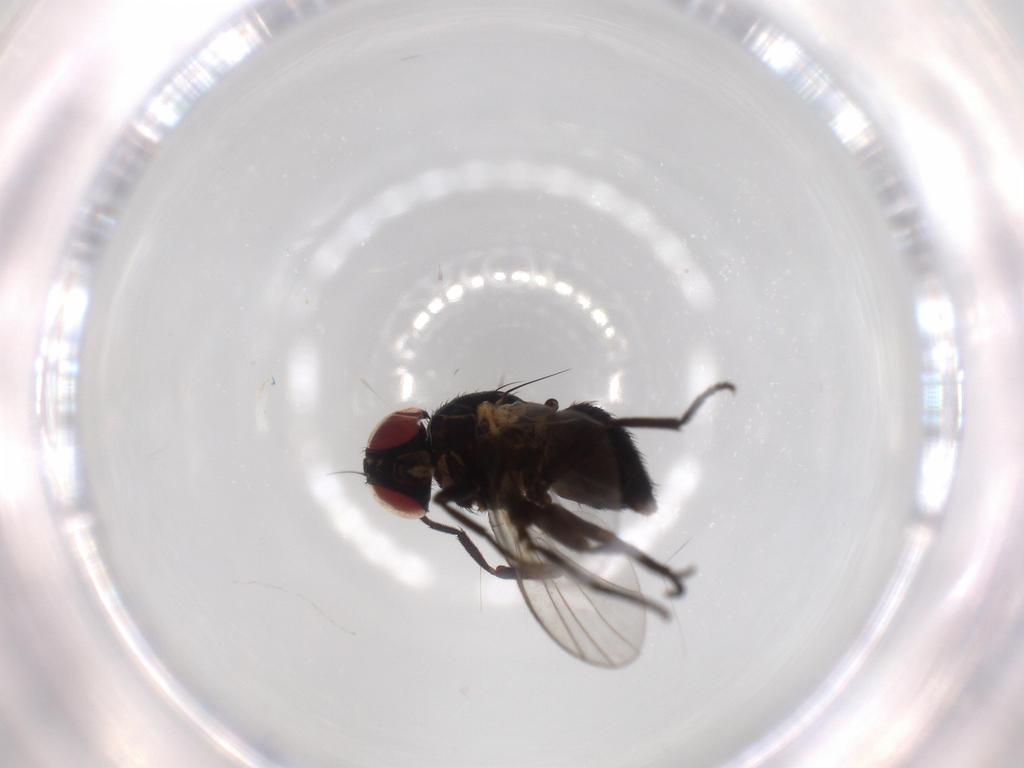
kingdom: Animalia
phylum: Arthropoda
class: Insecta
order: Diptera
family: Agromyzidae
